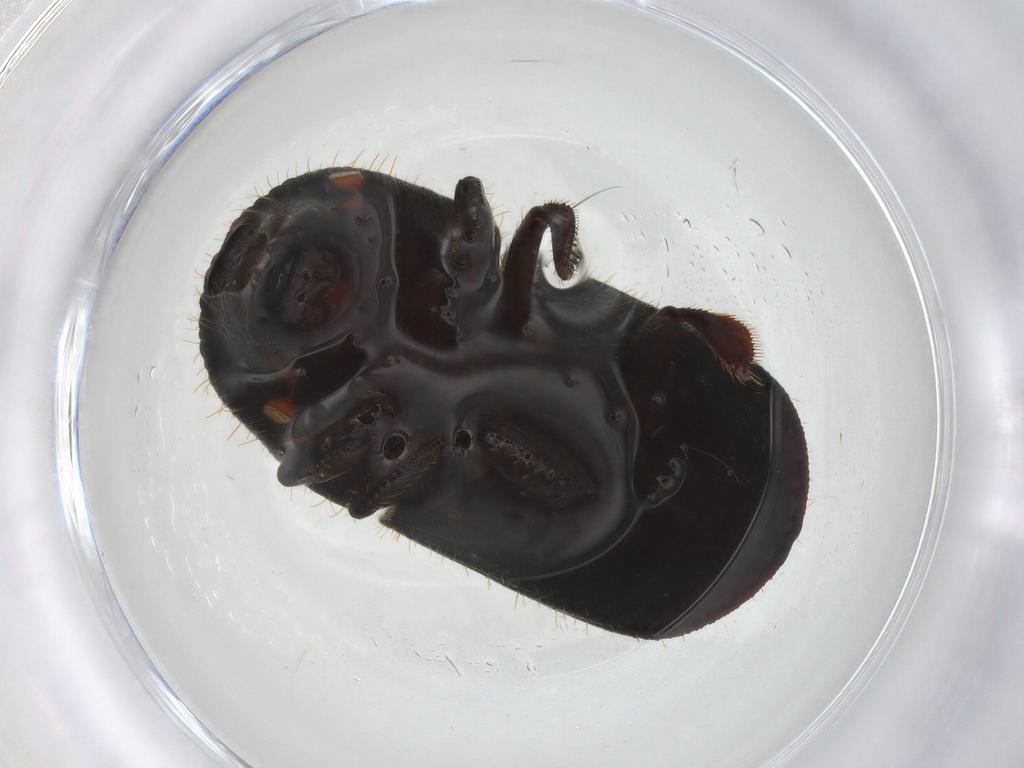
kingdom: Animalia
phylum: Arthropoda
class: Insecta
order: Coleoptera
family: Curculionidae
